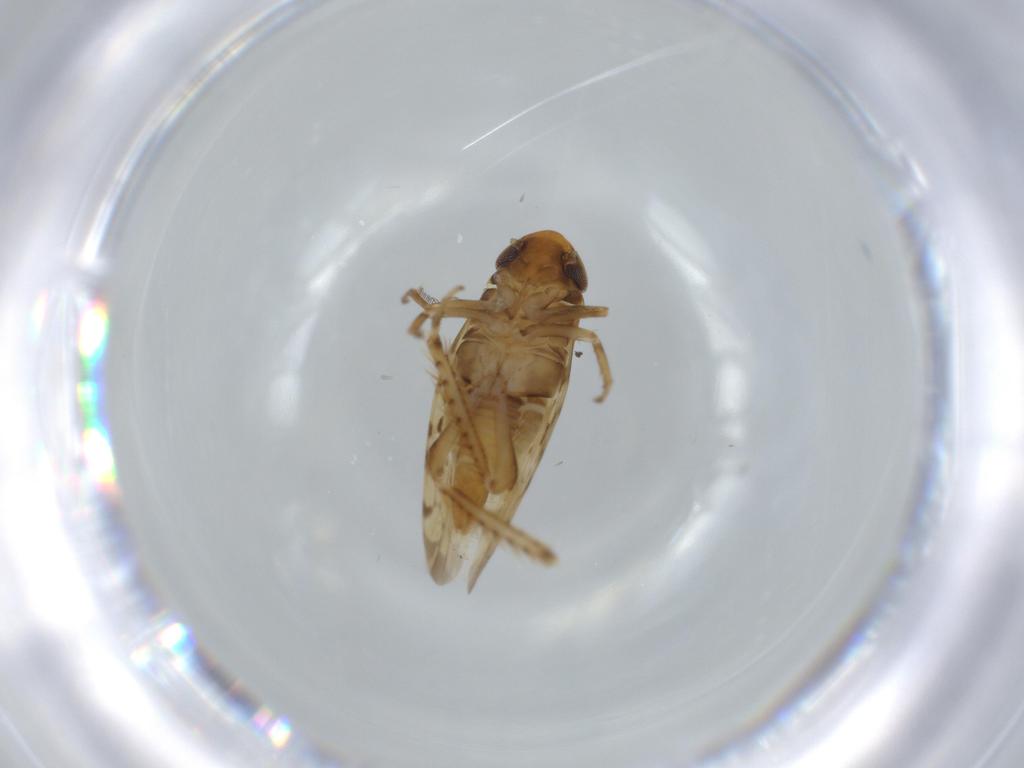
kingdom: Animalia
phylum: Arthropoda
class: Insecta
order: Hemiptera
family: Cicadellidae
